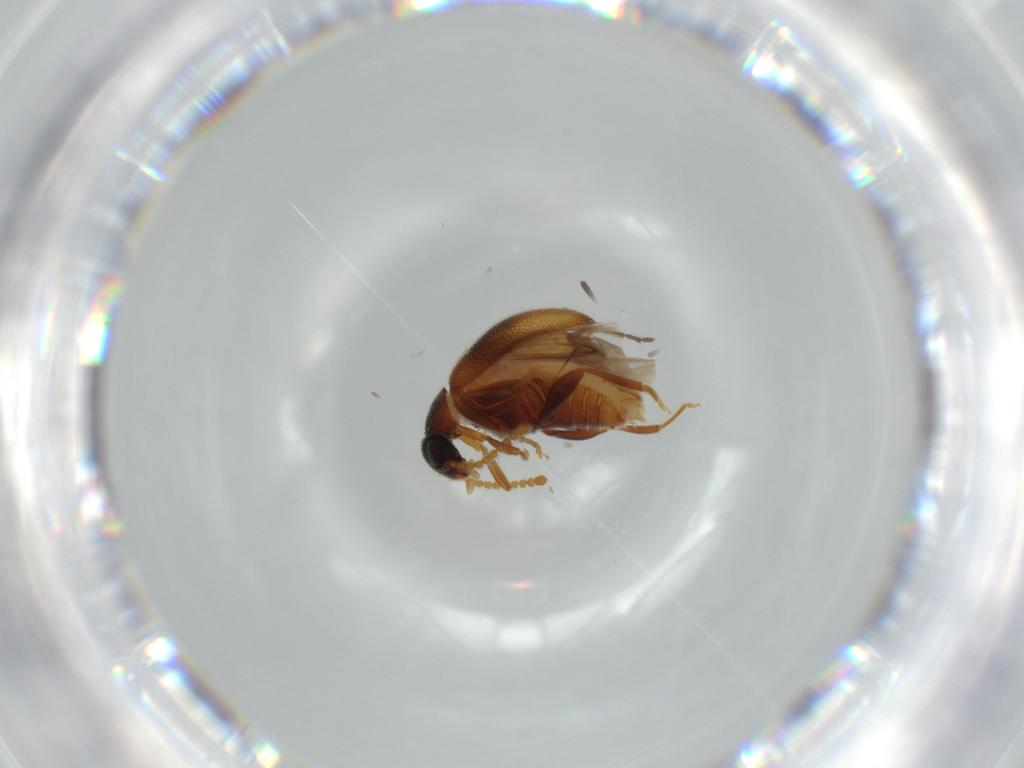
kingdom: Animalia
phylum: Arthropoda
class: Insecta
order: Coleoptera
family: Aderidae
